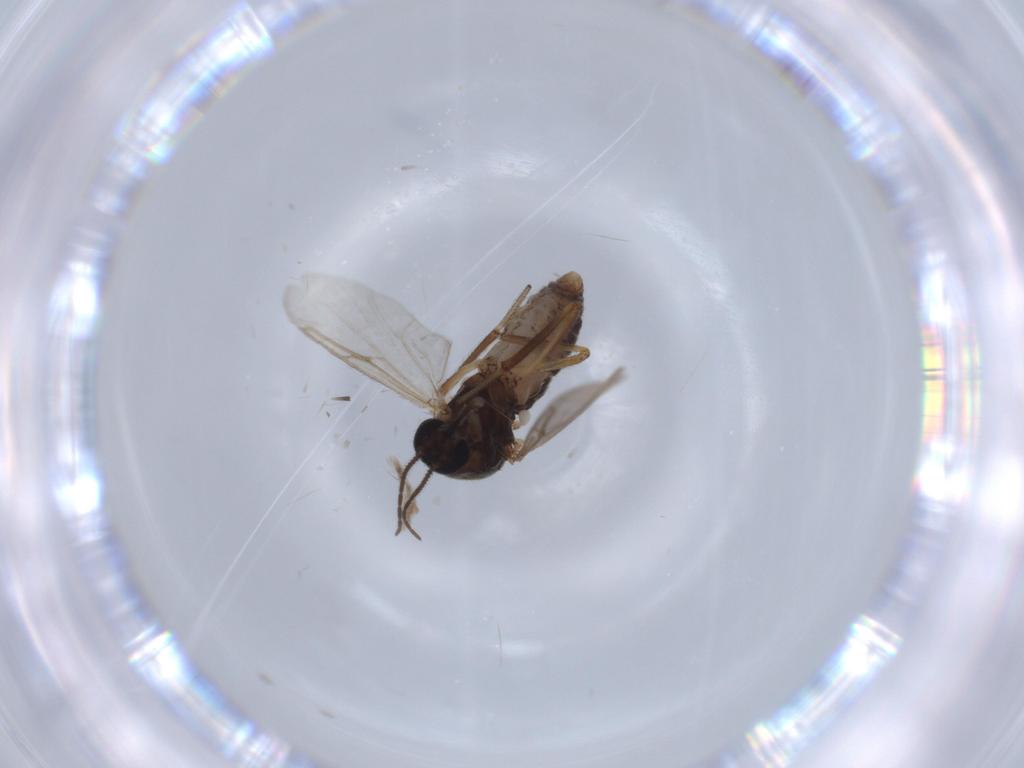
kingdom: Animalia
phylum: Arthropoda
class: Insecta
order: Diptera
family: Ceratopogonidae
